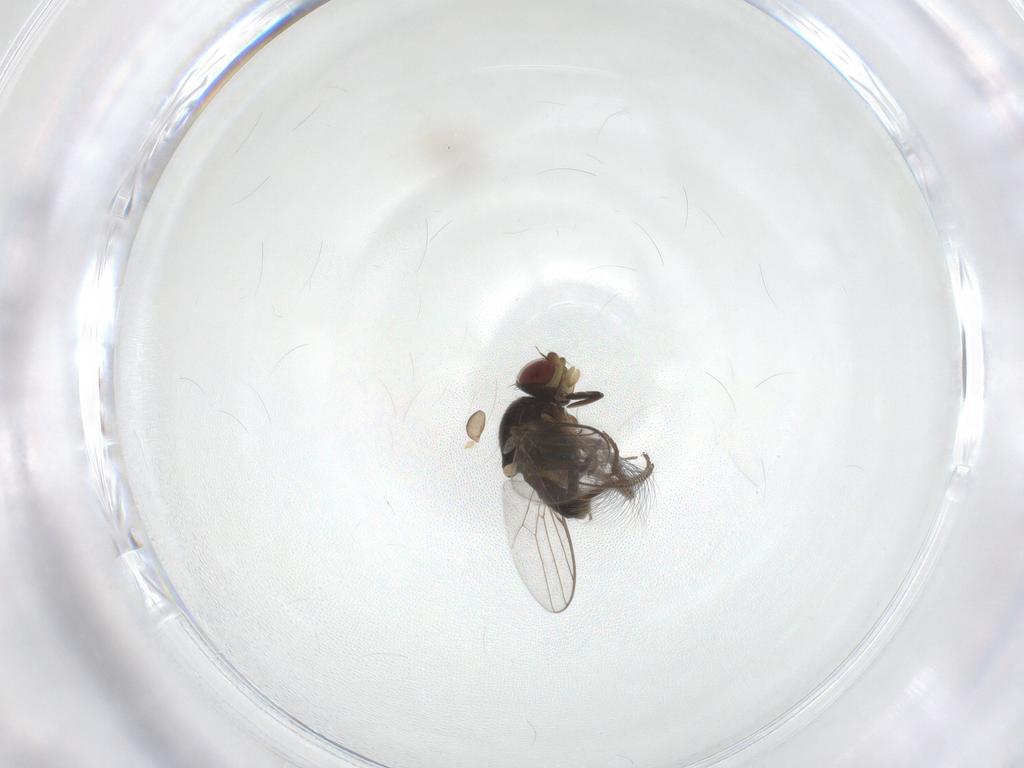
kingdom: Animalia
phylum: Arthropoda
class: Insecta
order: Diptera
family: Chloropidae
